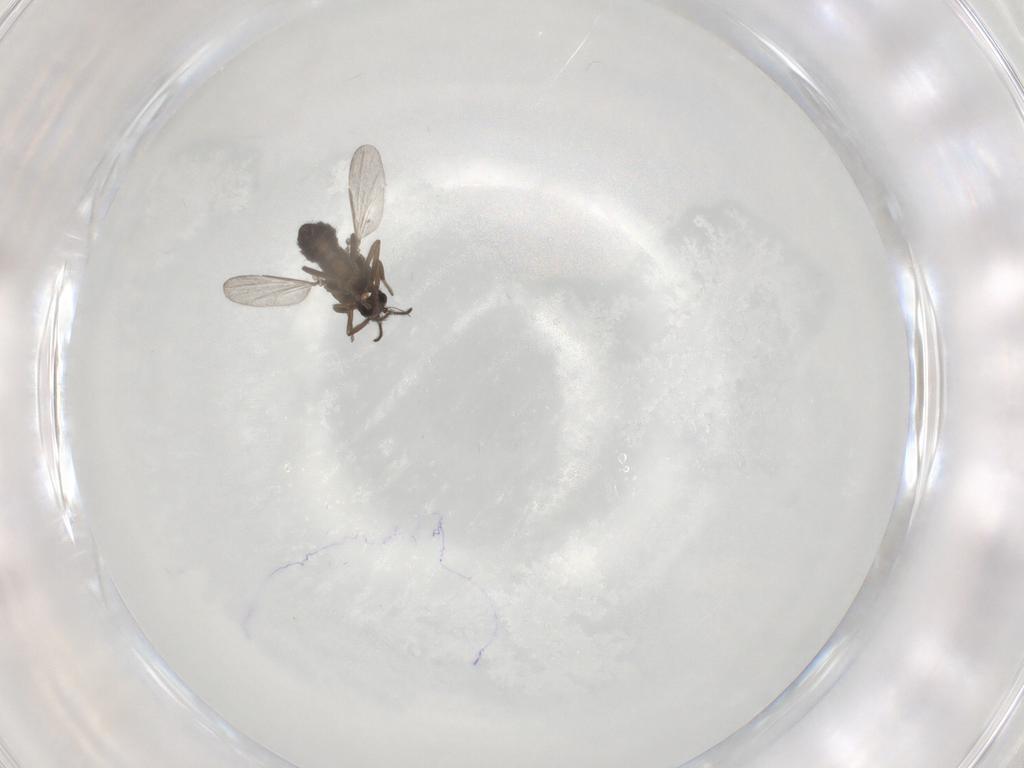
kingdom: Animalia
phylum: Arthropoda
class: Insecta
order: Diptera
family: Ceratopogonidae
